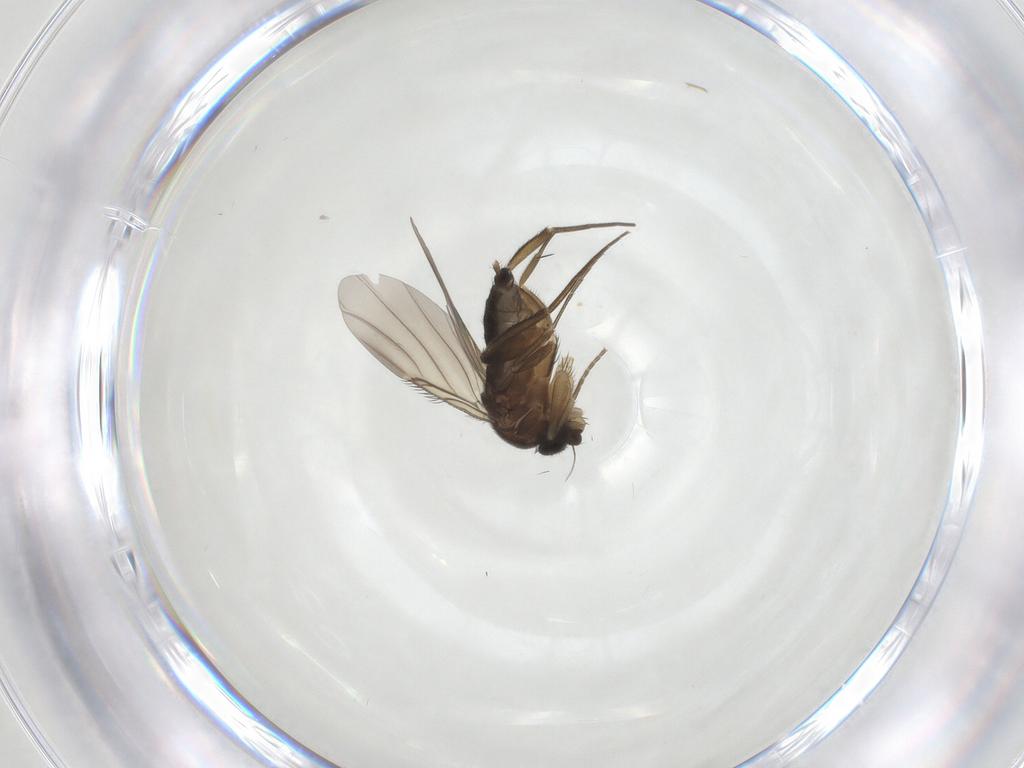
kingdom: Animalia
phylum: Arthropoda
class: Insecta
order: Diptera
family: Phoridae
